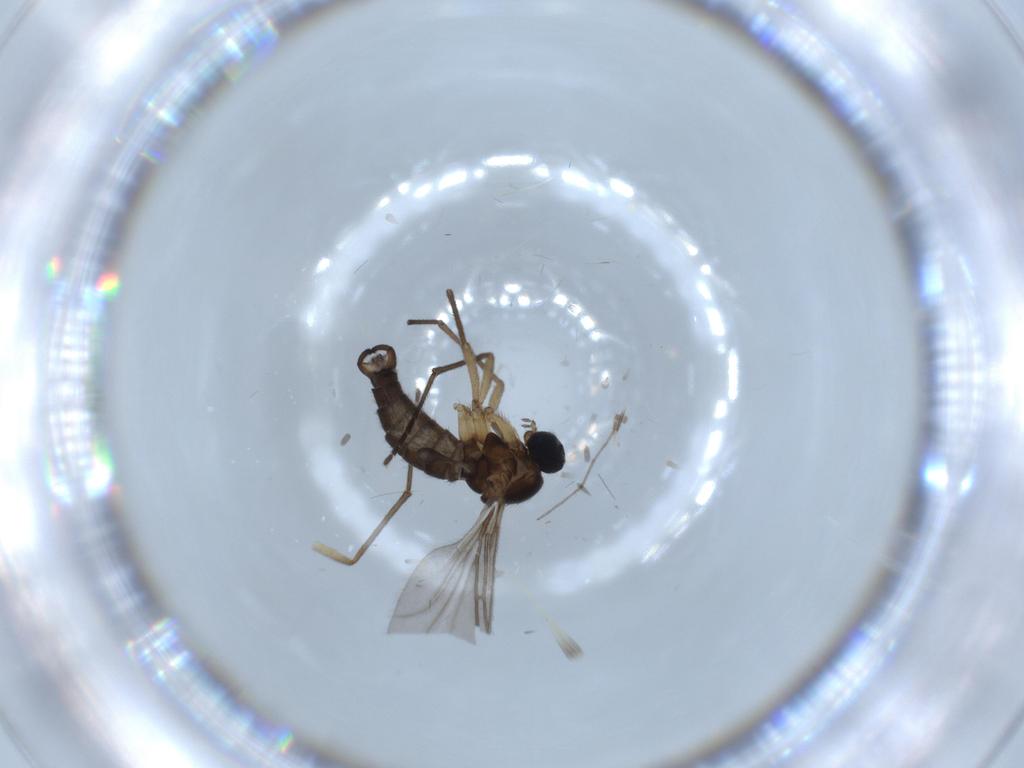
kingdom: Animalia
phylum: Arthropoda
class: Insecta
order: Diptera
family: Sciaridae
